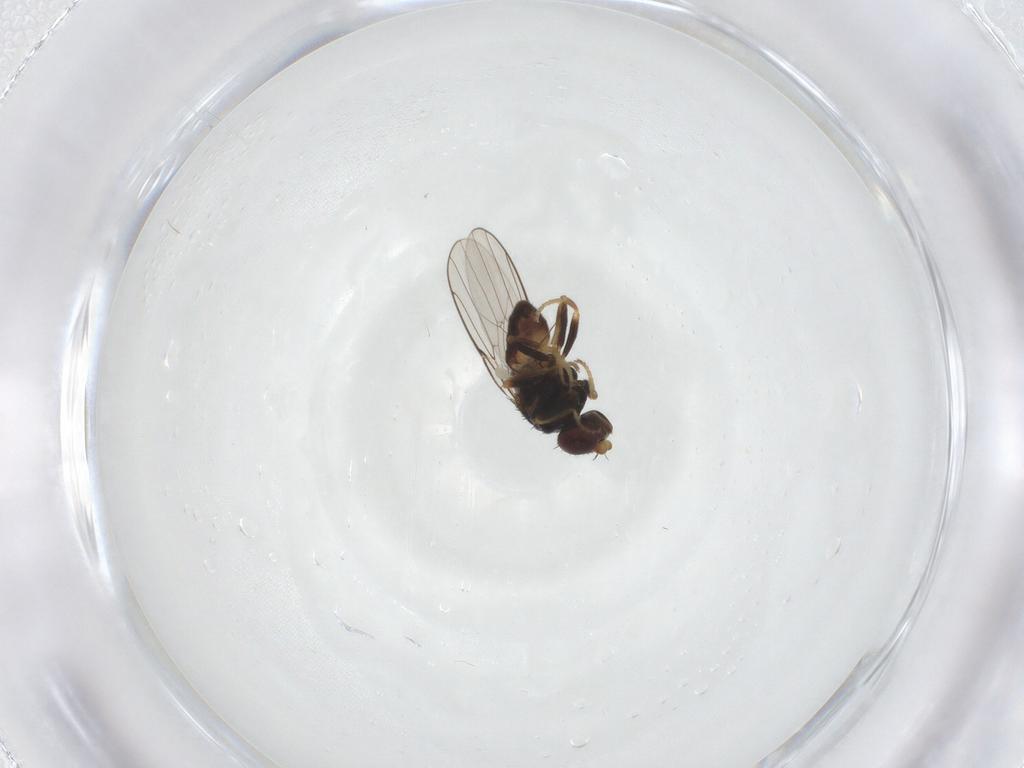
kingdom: Animalia
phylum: Arthropoda
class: Insecta
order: Diptera
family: Chloropidae
